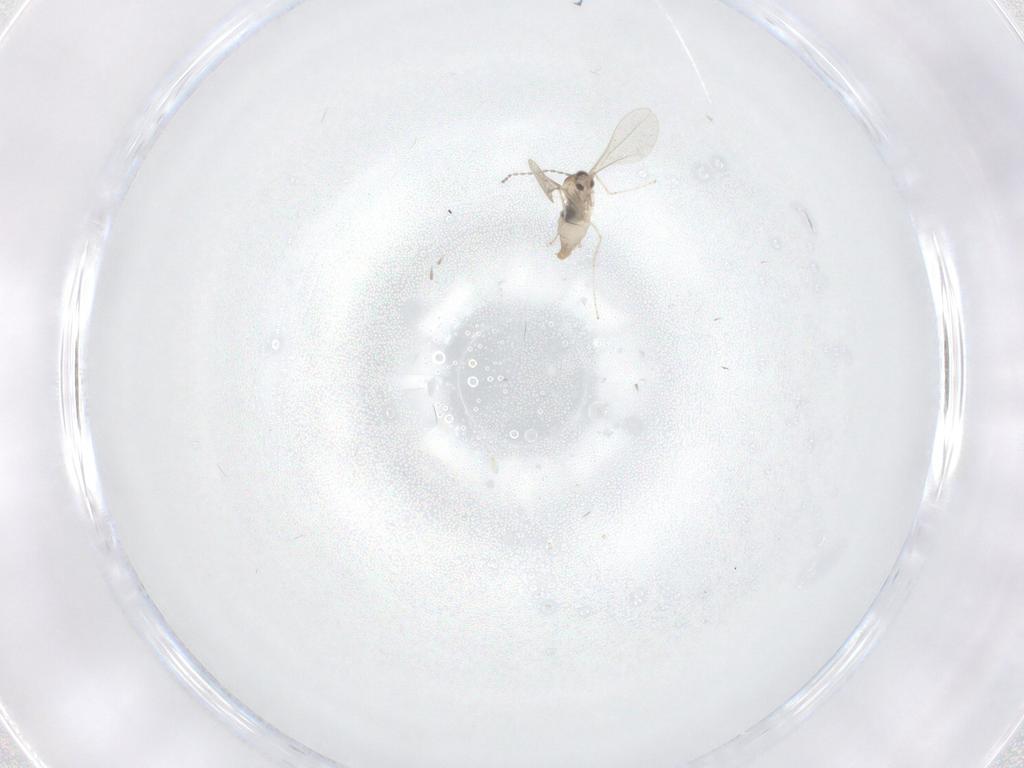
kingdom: Animalia
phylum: Arthropoda
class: Insecta
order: Diptera
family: Cecidomyiidae
